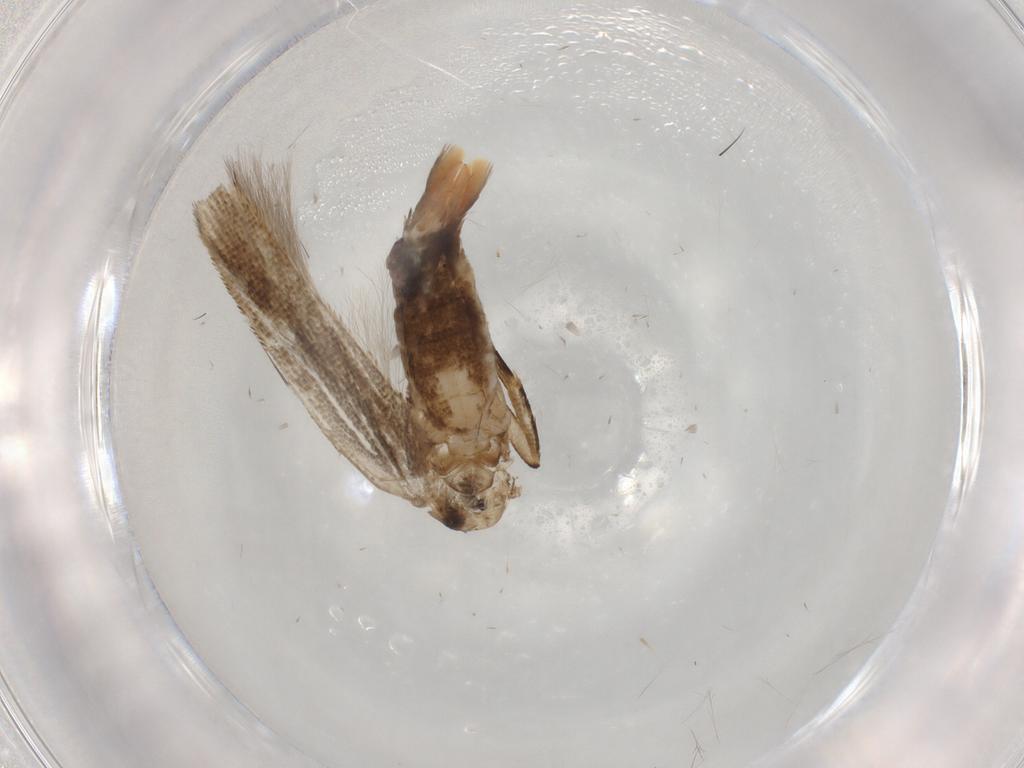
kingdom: Animalia
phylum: Arthropoda
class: Insecta
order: Lepidoptera
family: Cosmopterigidae
